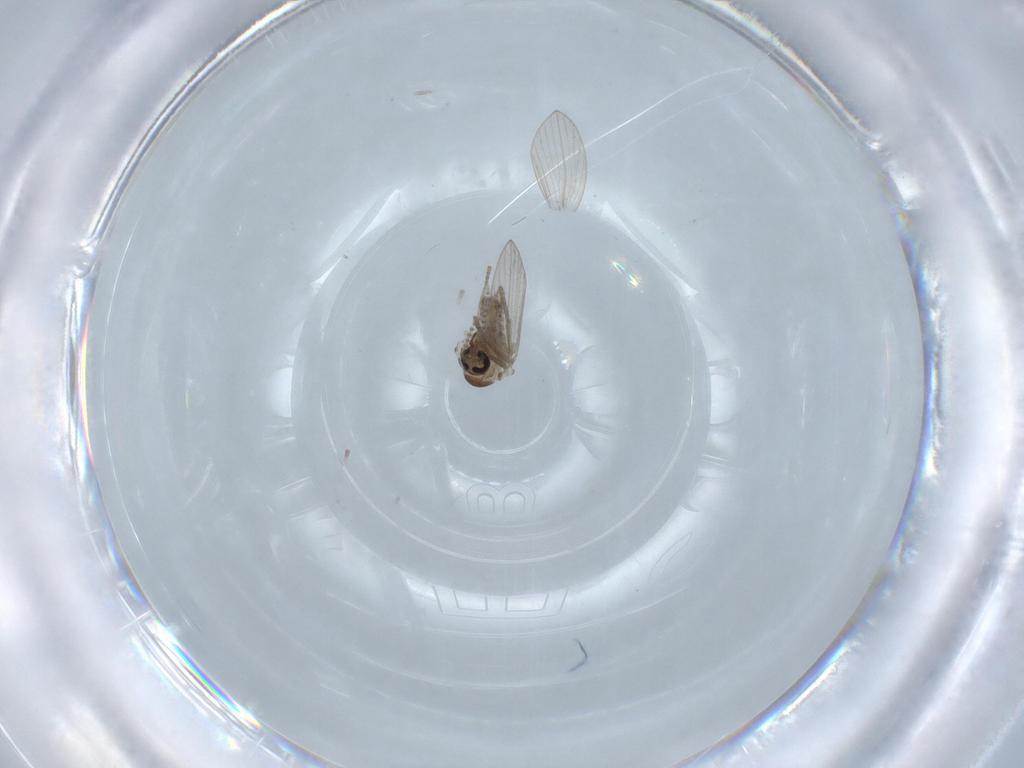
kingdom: Animalia
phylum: Arthropoda
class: Insecta
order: Diptera
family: Psychodidae
